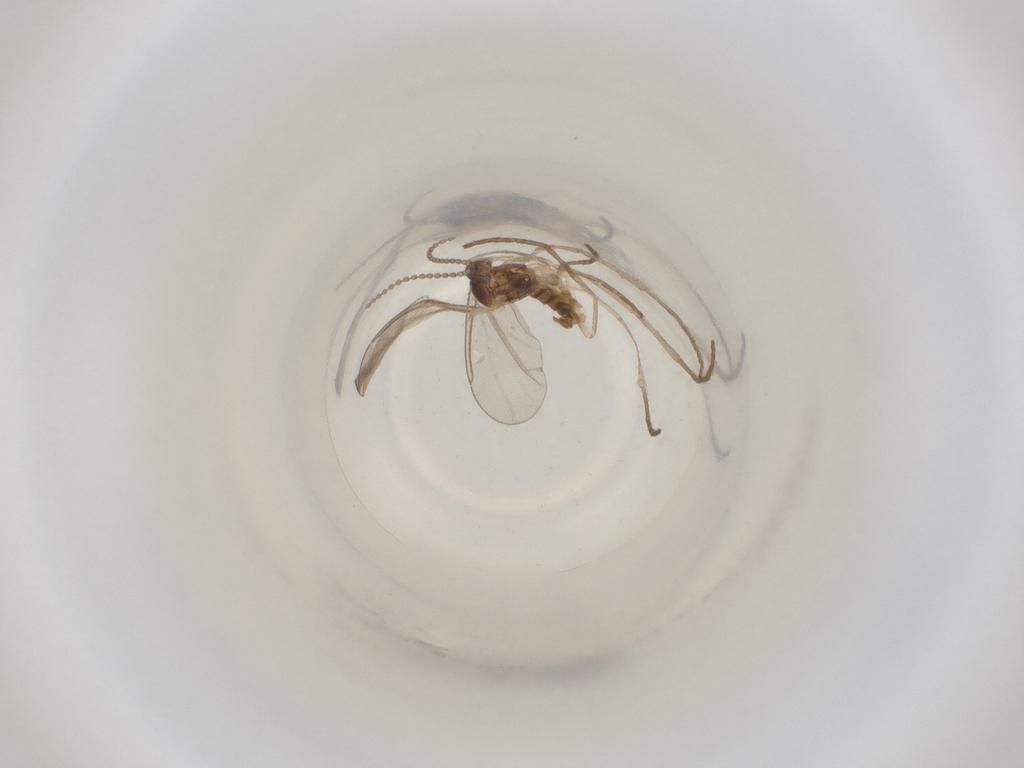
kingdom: Animalia
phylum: Arthropoda
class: Insecta
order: Diptera
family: Cecidomyiidae
